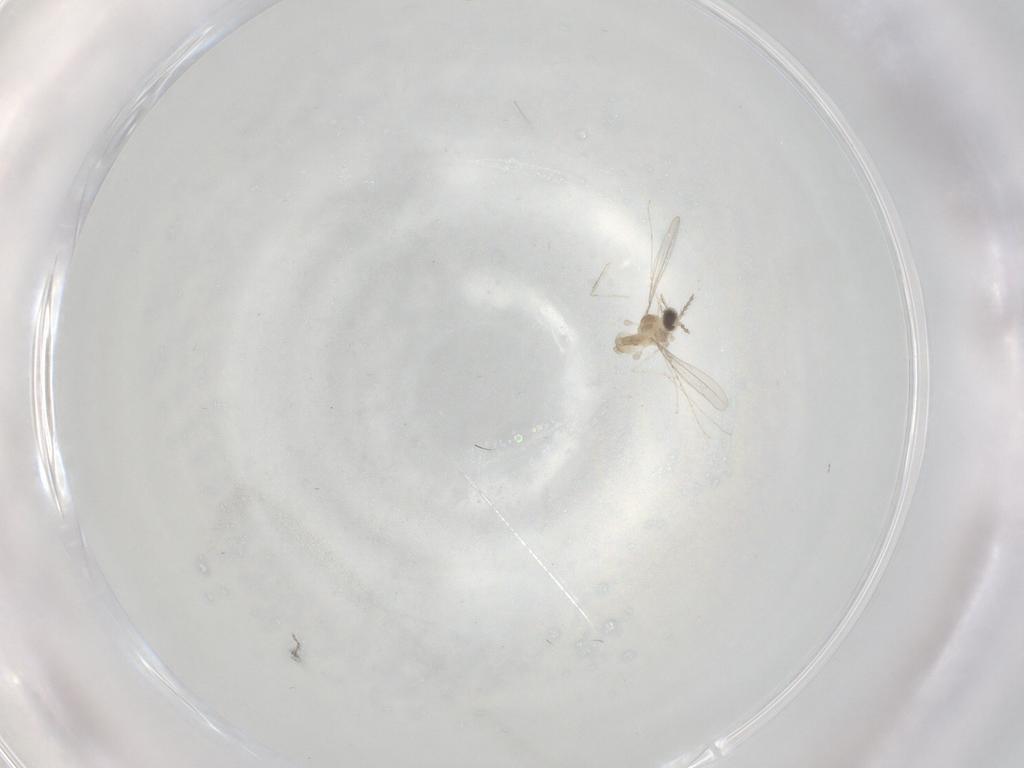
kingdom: Animalia
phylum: Arthropoda
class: Insecta
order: Diptera
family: Cecidomyiidae
